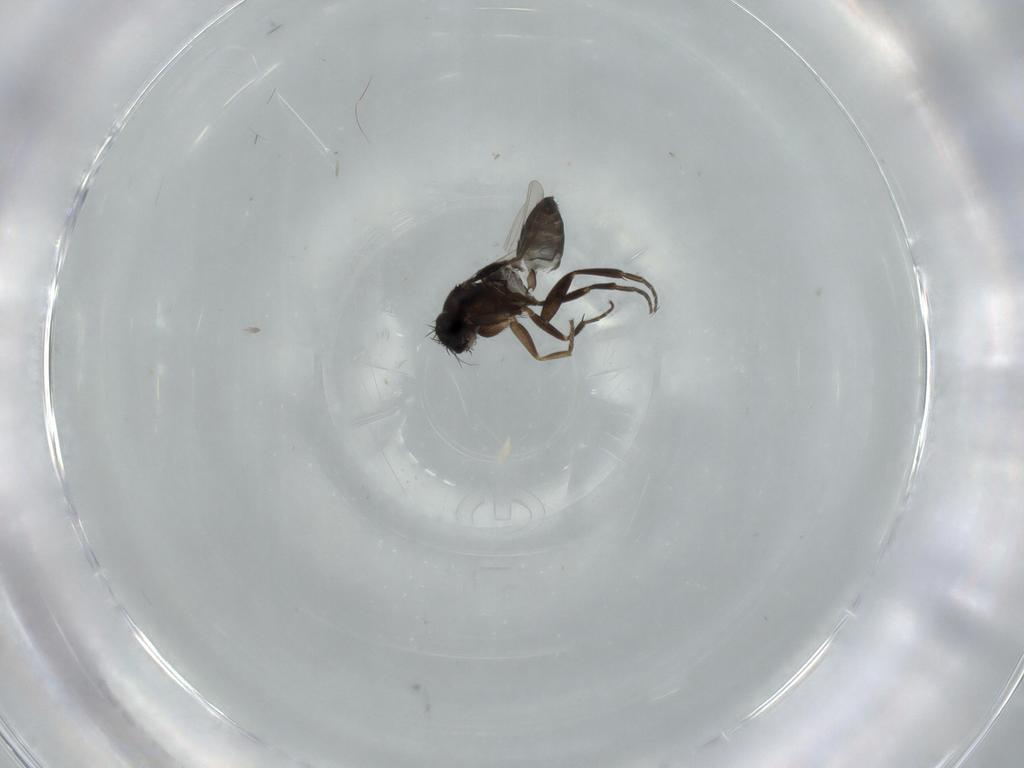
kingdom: Animalia
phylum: Arthropoda
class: Insecta
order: Diptera
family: Phoridae
